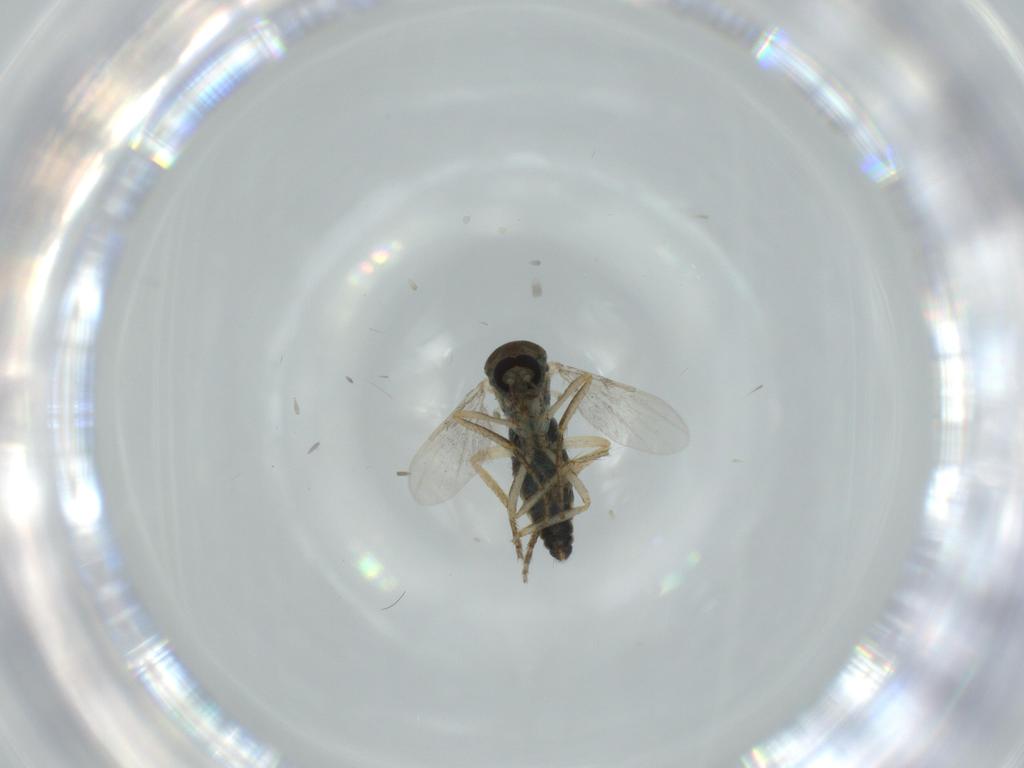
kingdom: Animalia
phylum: Arthropoda
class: Insecta
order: Diptera
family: Ceratopogonidae
